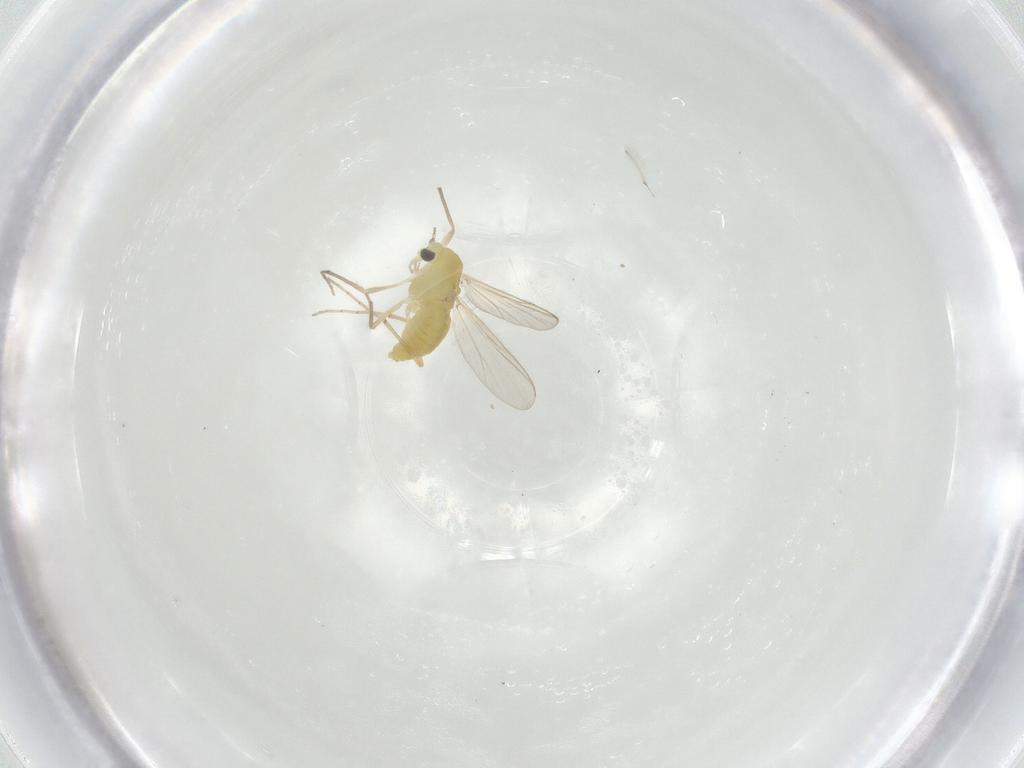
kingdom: Animalia
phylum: Arthropoda
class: Insecta
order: Diptera
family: Chironomidae
